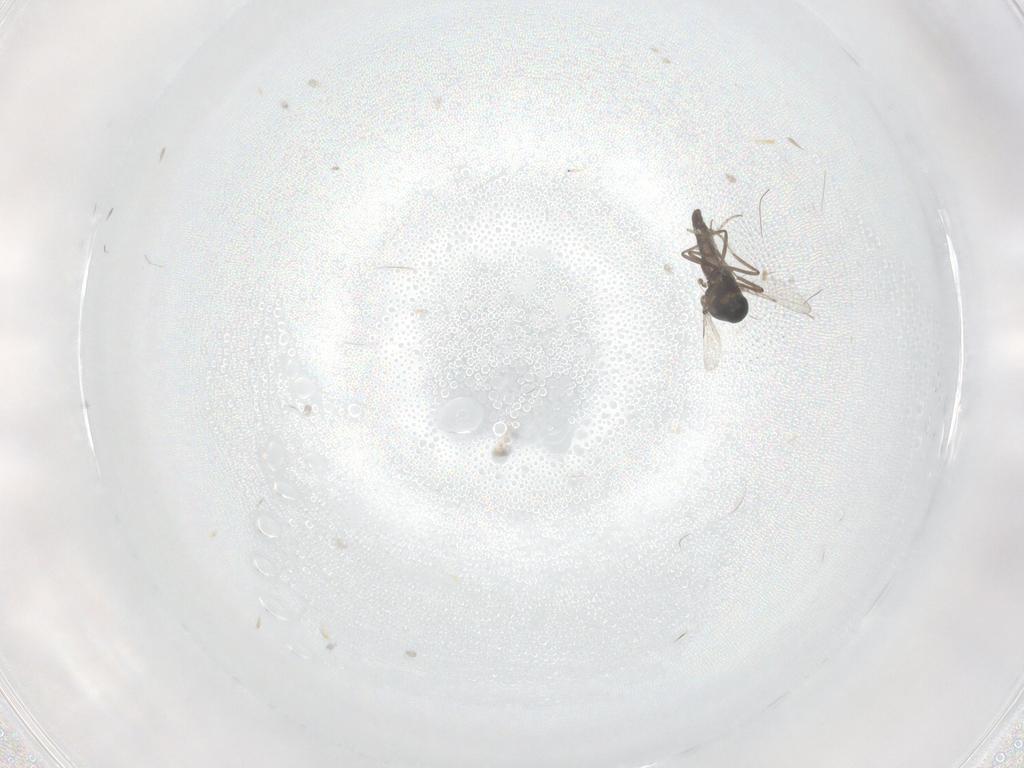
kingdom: Animalia
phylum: Arthropoda
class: Insecta
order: Diptera
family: Ceratopogonidae
